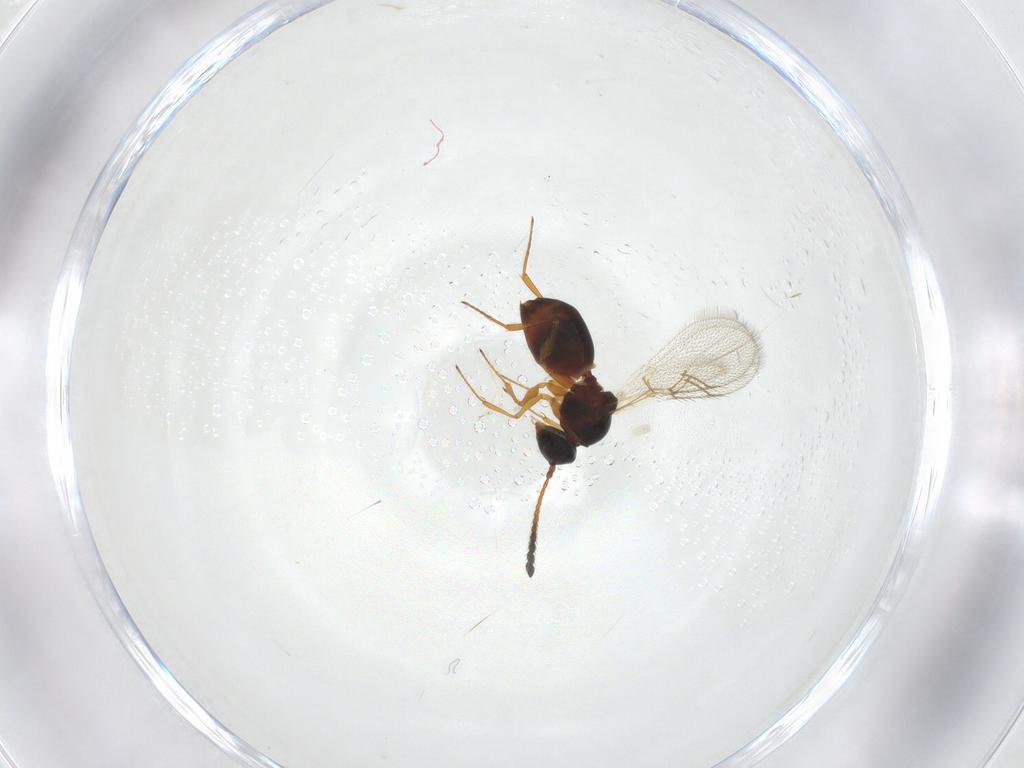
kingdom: Animalia
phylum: Arthropoda
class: Insecta
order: Hymenoptera
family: Figitidae
